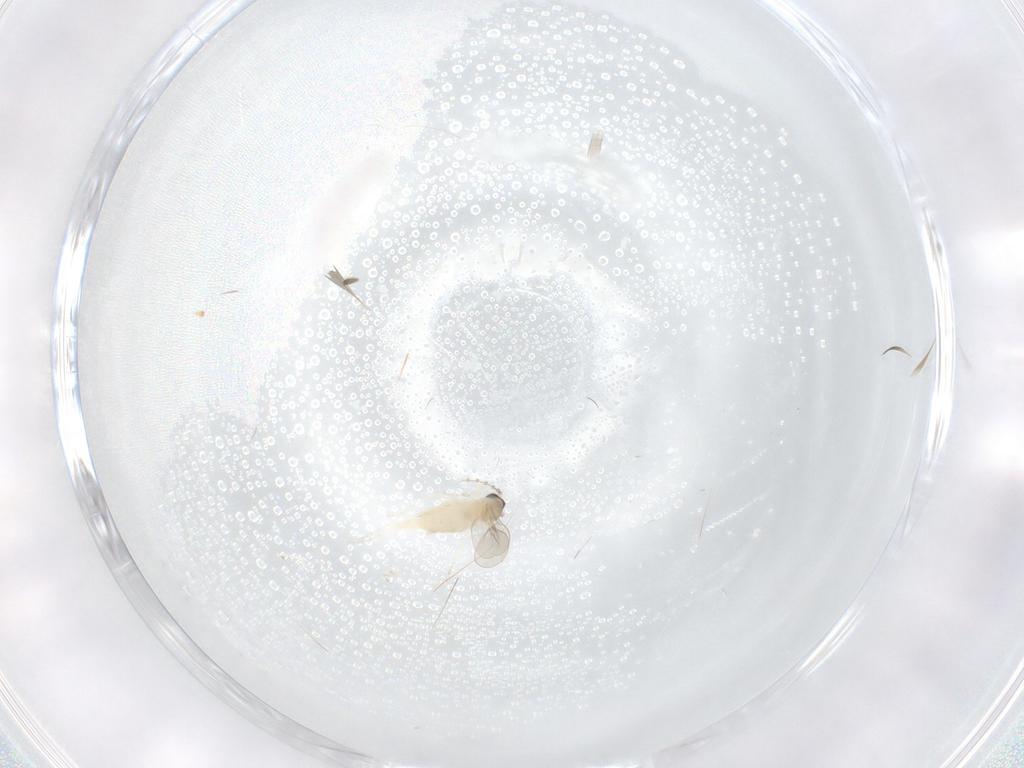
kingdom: Animalia
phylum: Arthropoda
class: Insecta
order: Diptera
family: Cecidomyiidae
